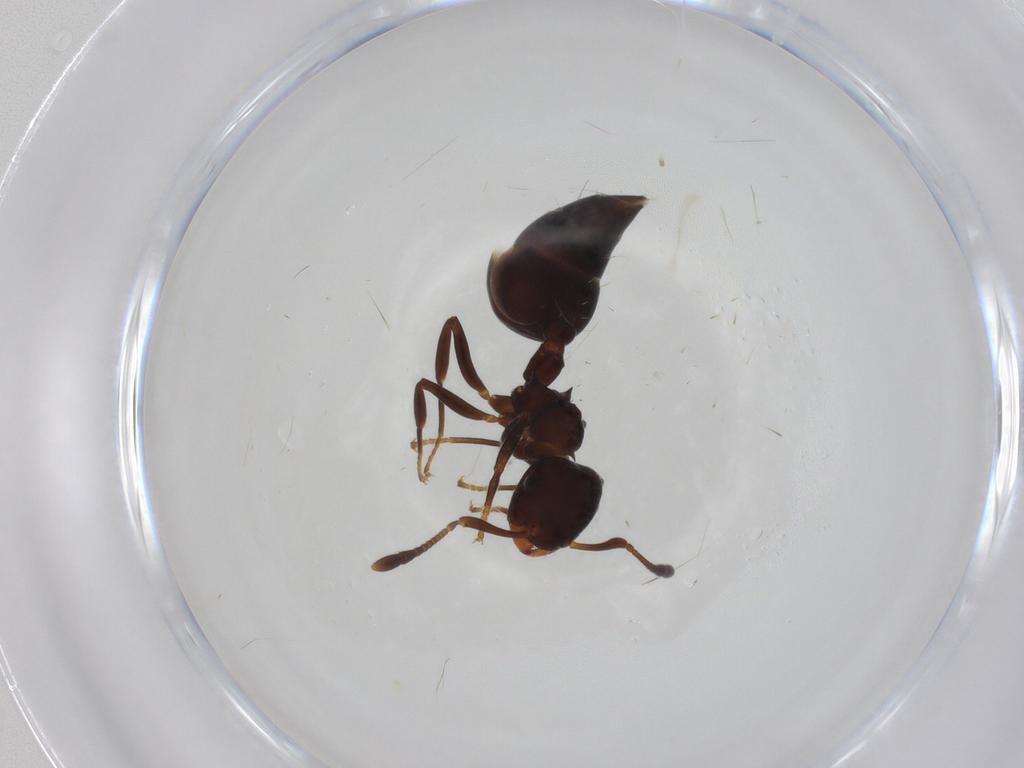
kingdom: Animalia
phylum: Arthropoda
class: Insecta
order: Hymenoptera
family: Formicidae
